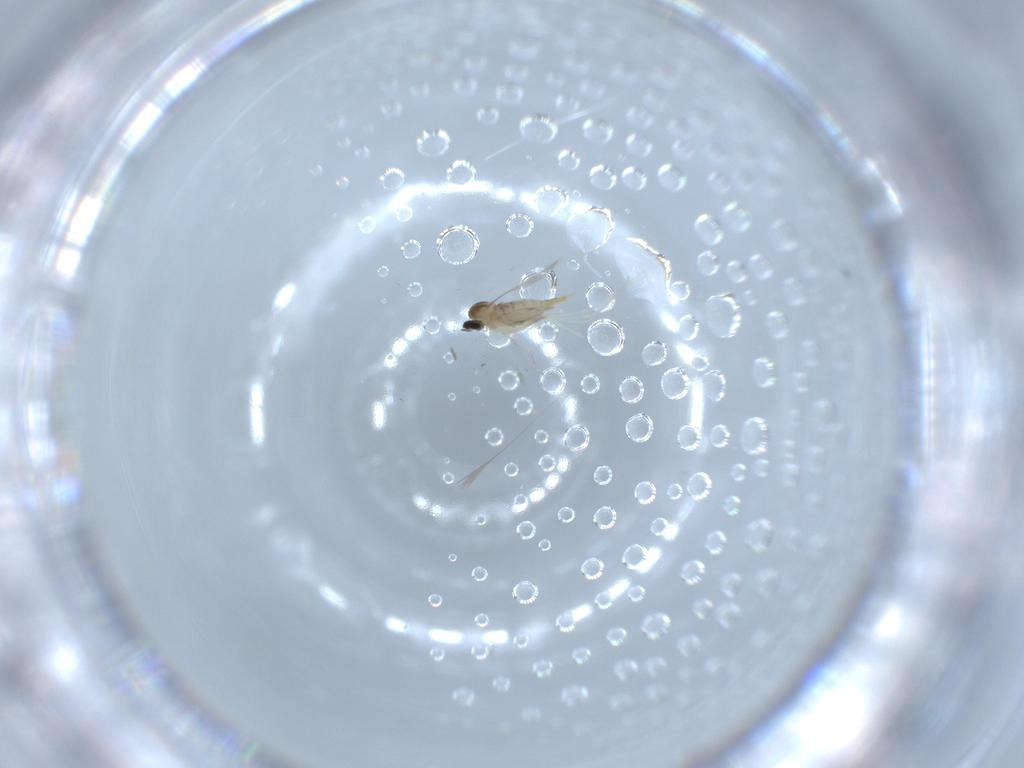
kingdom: Animalia
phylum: Arthropoda
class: Insecta
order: Diptera
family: Cecidomyiidae
